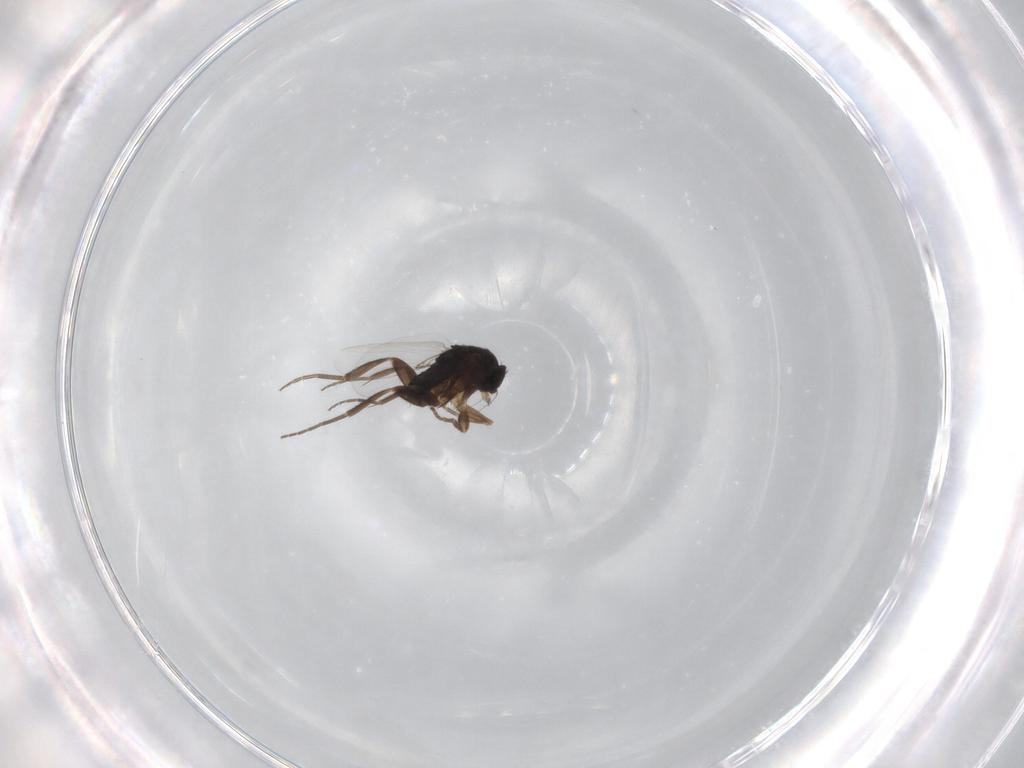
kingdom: Animalia
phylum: Arthropoda
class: Insecta
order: Diptera
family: Phoridae
